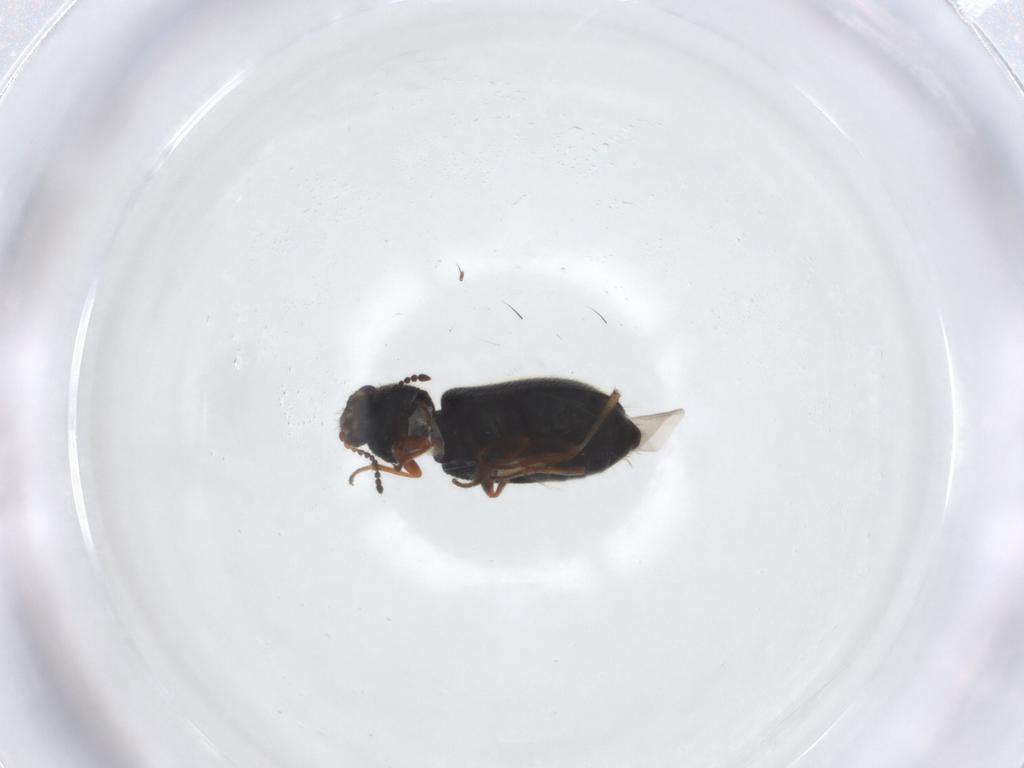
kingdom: Animalia
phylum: Arthropoda
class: Insecta
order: Coleoptera
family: Melyridae
